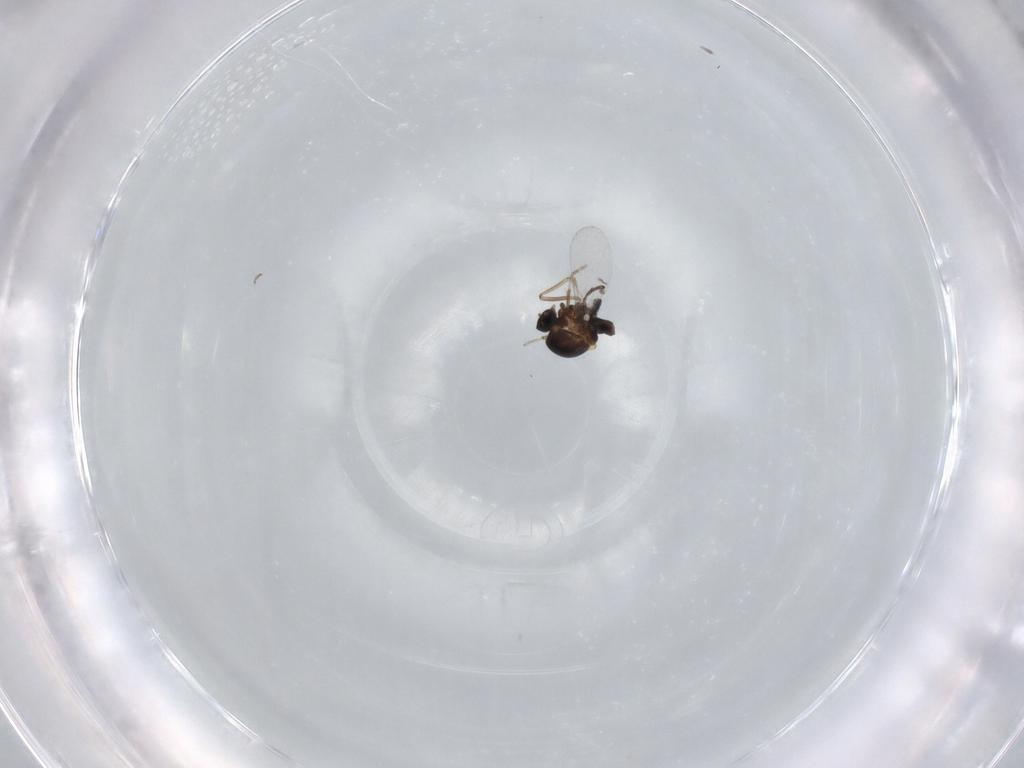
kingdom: Animalia
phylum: Arthropoda
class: Insecta
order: Diptera
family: Ceratopogonidae
